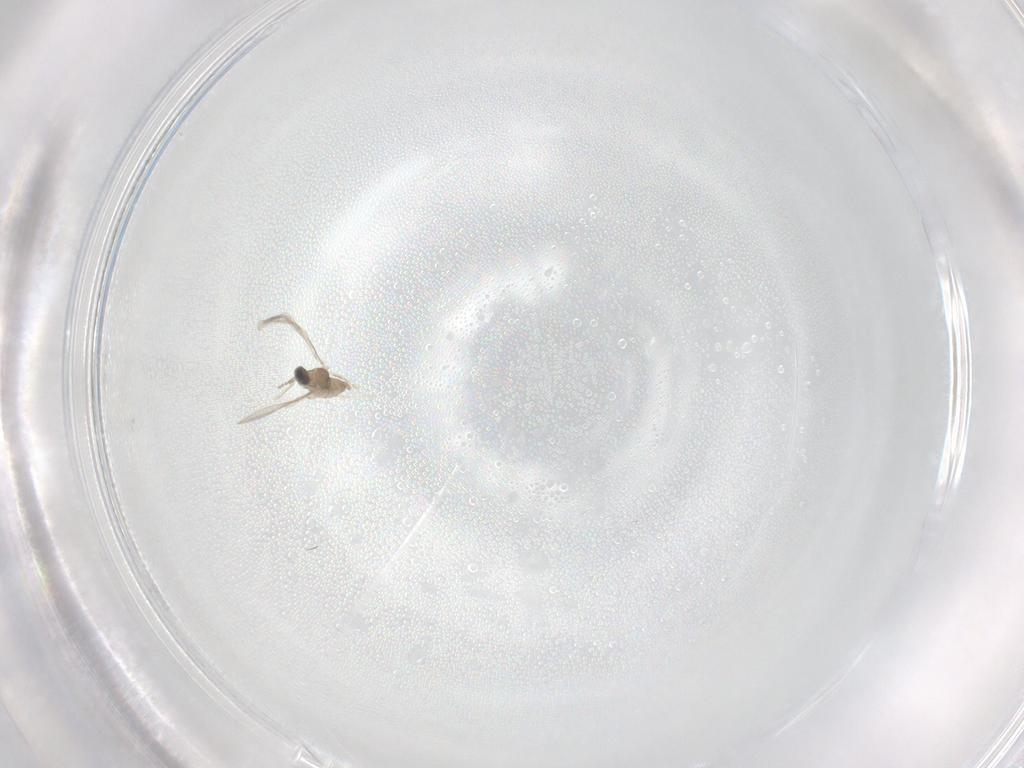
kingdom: Animalia
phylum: Arthropoda
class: Insecta
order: Diptera
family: Cecidomyiidae
